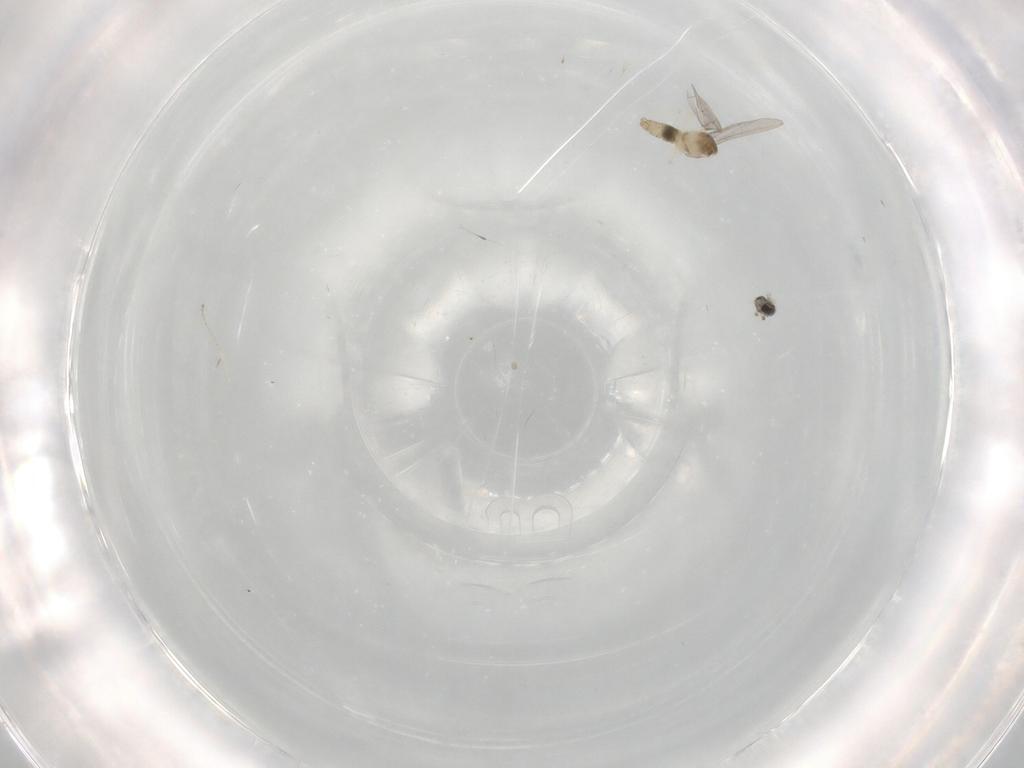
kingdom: Animalia
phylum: Arthropoda
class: Insecta
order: Diptera
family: Cecidomyiidae
